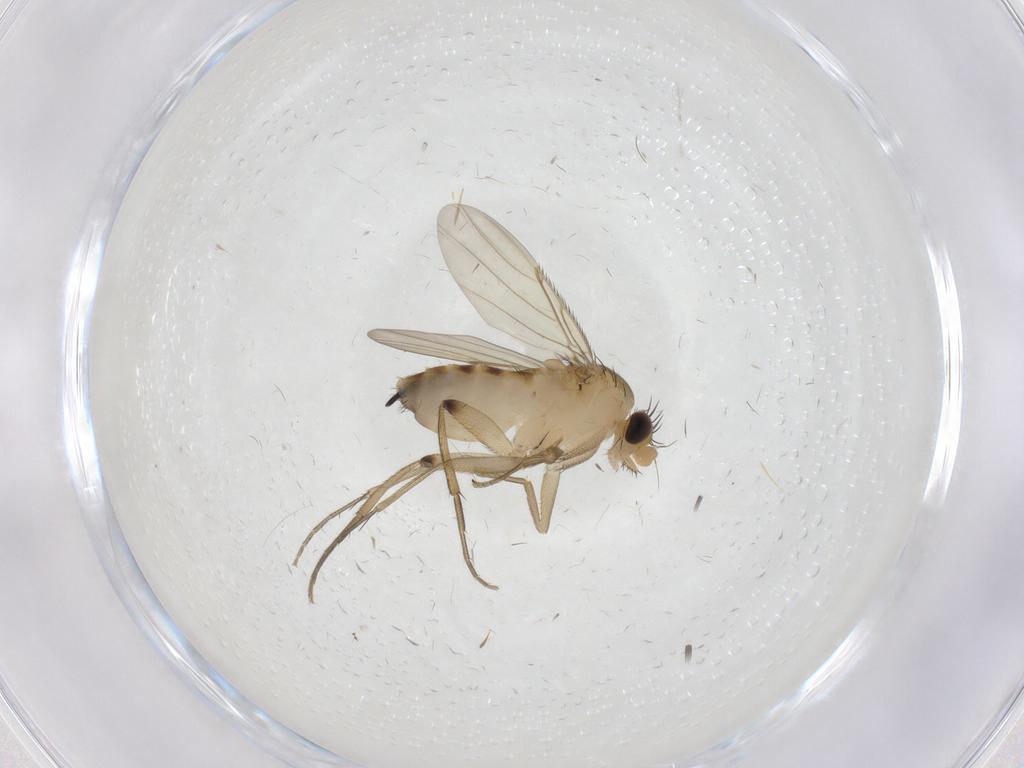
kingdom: Animalia
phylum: Arthropoda
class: Insecta
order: Diptera
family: Phoridae
